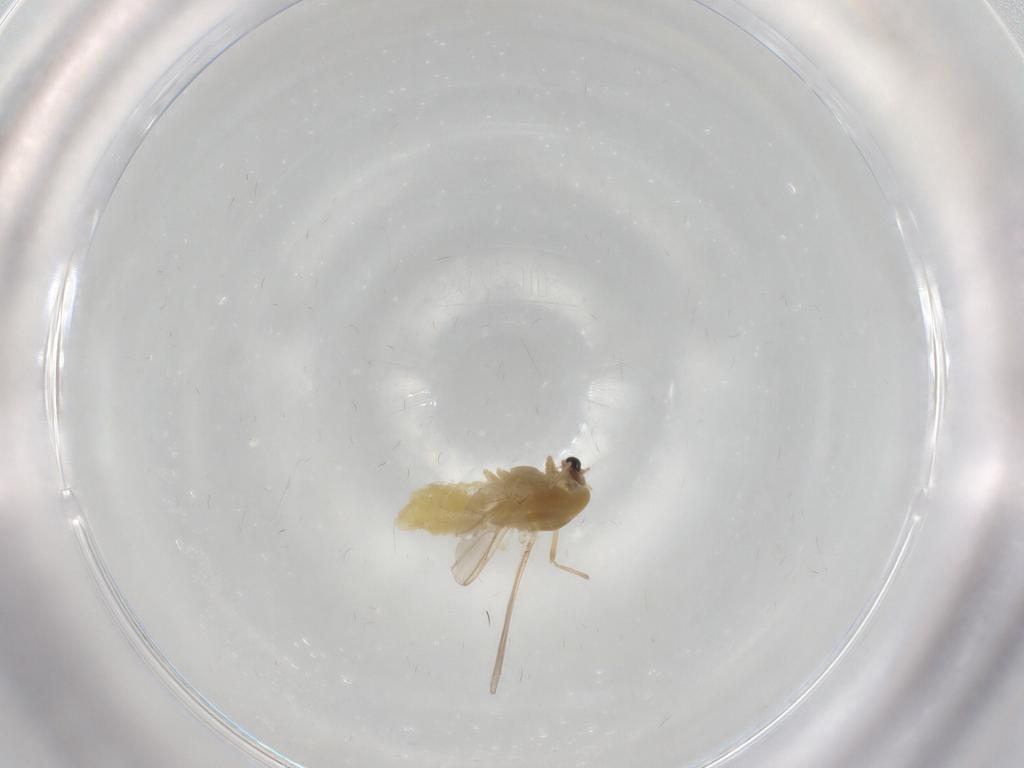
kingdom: Animalia
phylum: Arthropoda
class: Insecta
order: Diptera
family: Chironomidae
